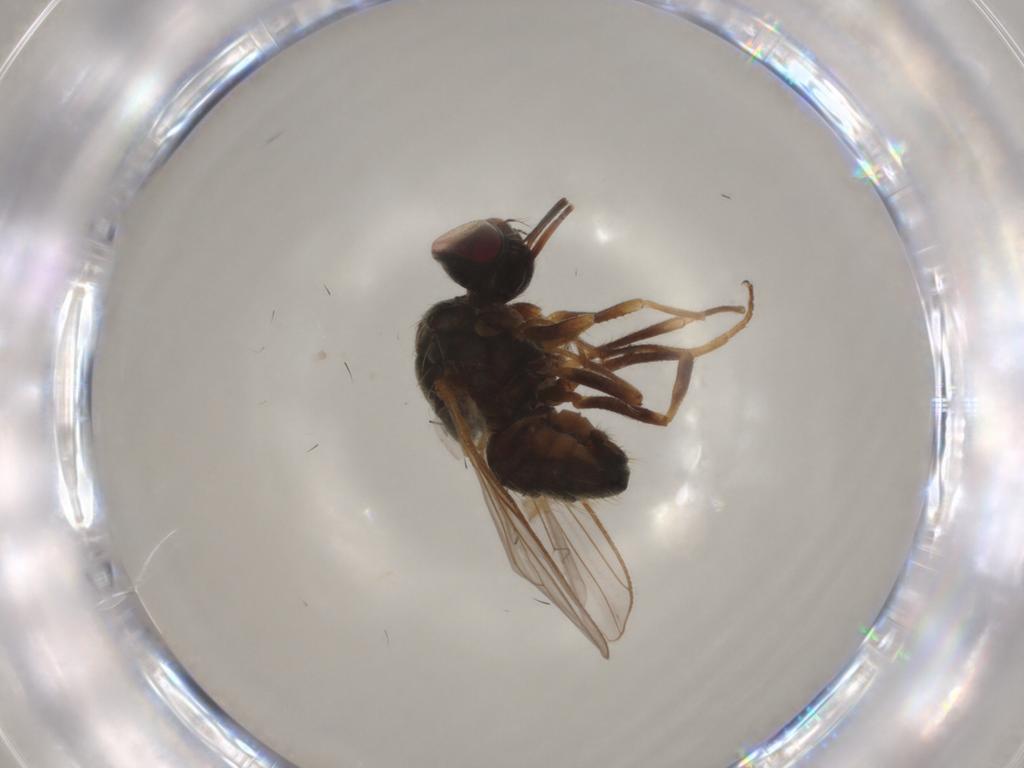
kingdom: Animalia
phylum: Arthropoda
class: Insecta
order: Diptera
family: Muscidae
